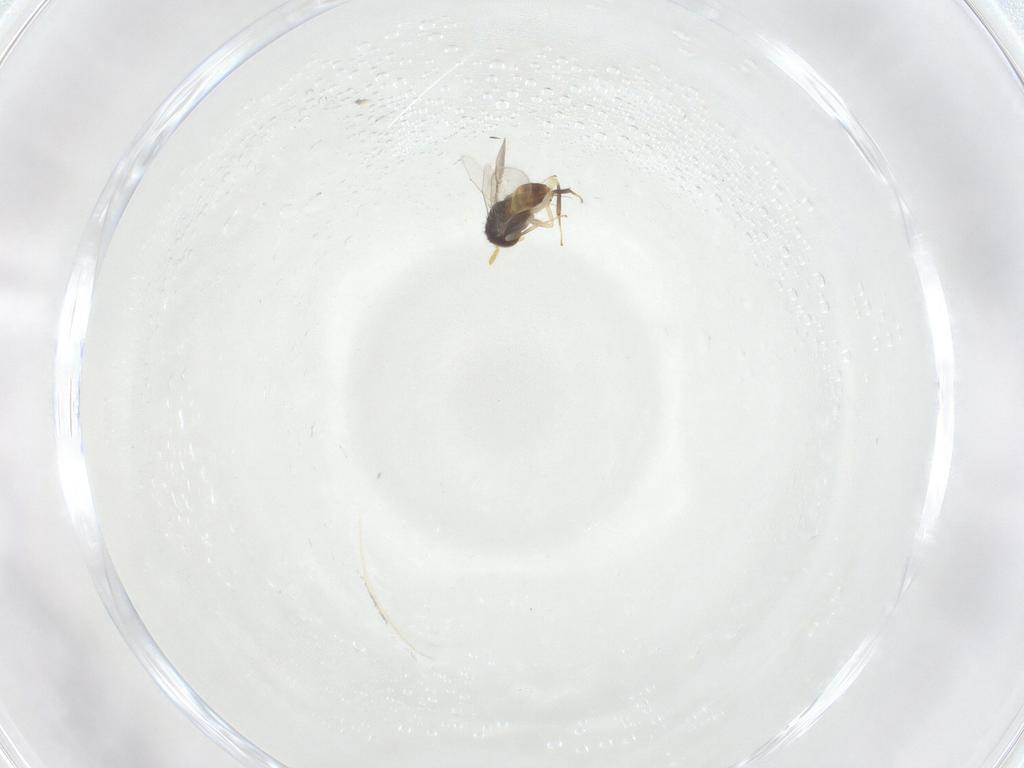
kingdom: Animalia
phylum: Arthropoda
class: Insecta
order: Hymenoptera
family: Aphelinidae
